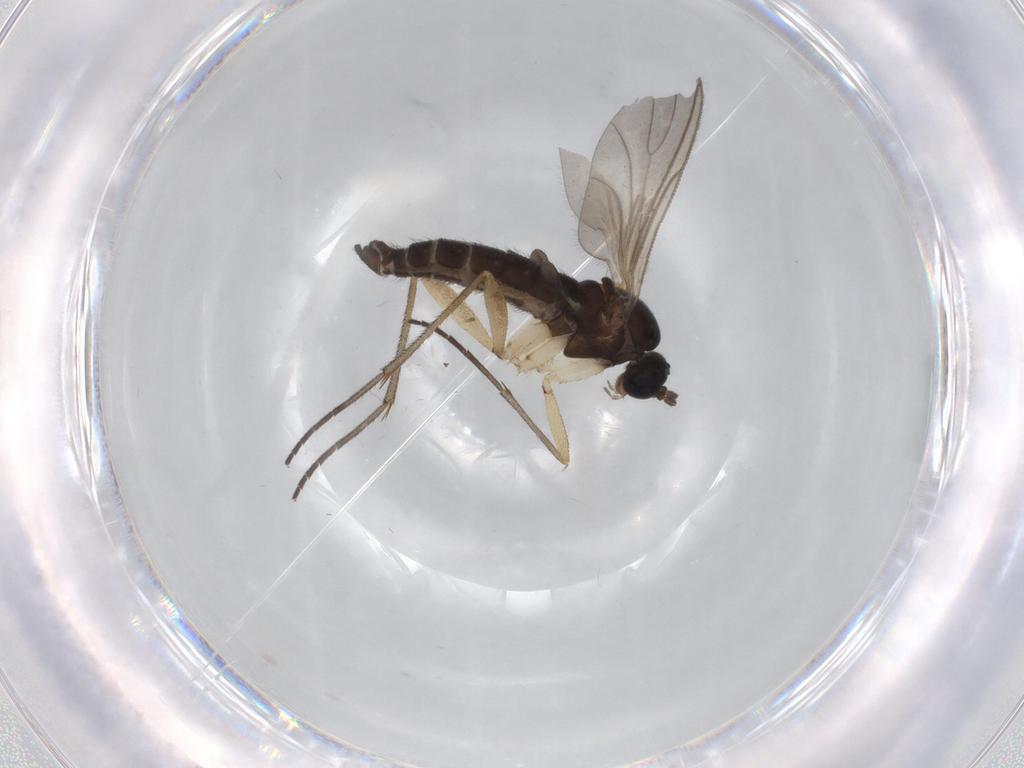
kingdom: Animalia
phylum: Arthropoda
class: Insecta
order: Diptera
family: Sciaridae
